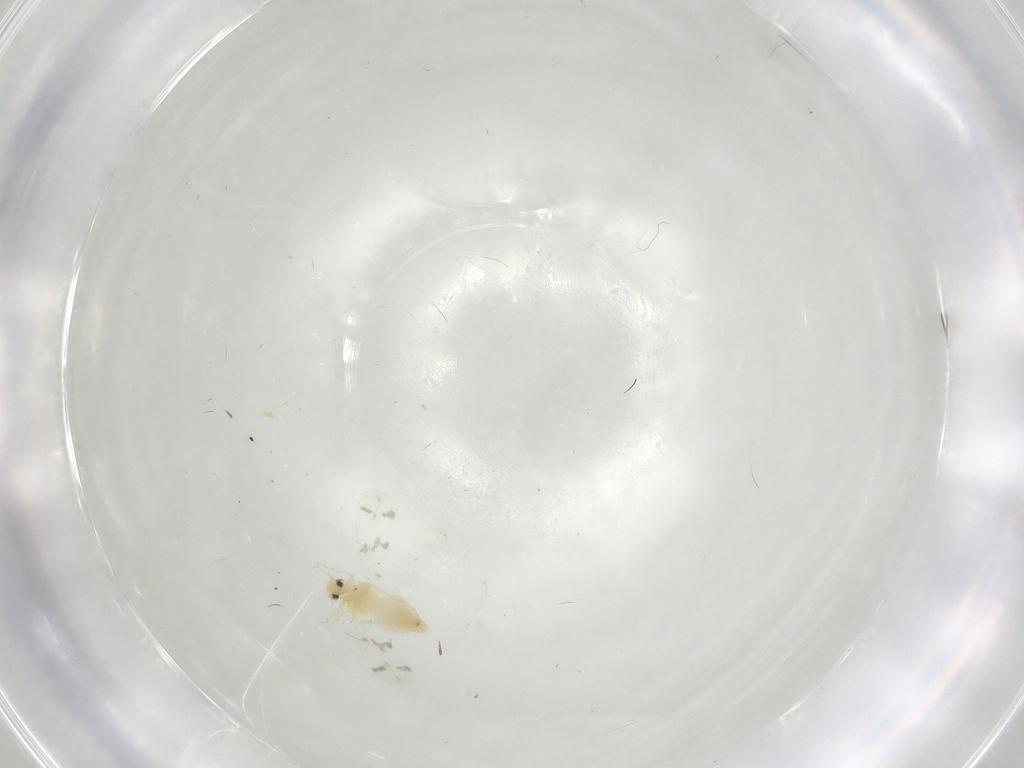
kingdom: Animalia
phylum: Arthropoda
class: Insecta
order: Hemiptera
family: Aleyrodidae
